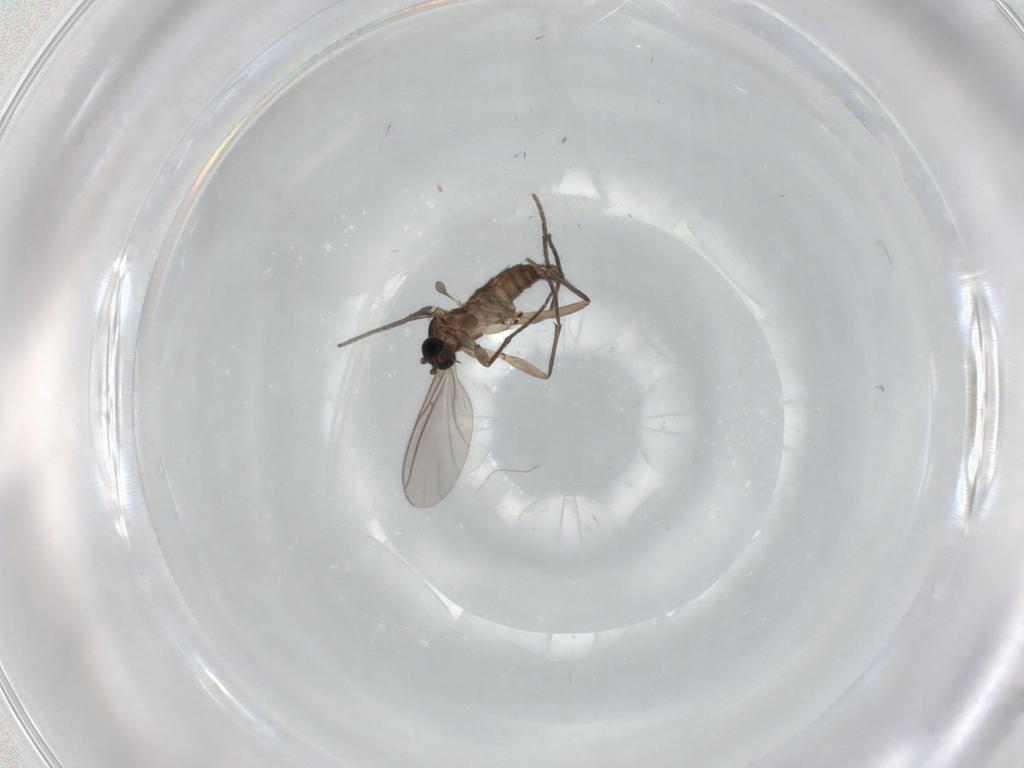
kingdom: Animalia
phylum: Arthropoda
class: Insecta
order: Diptera
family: Sciaridae
